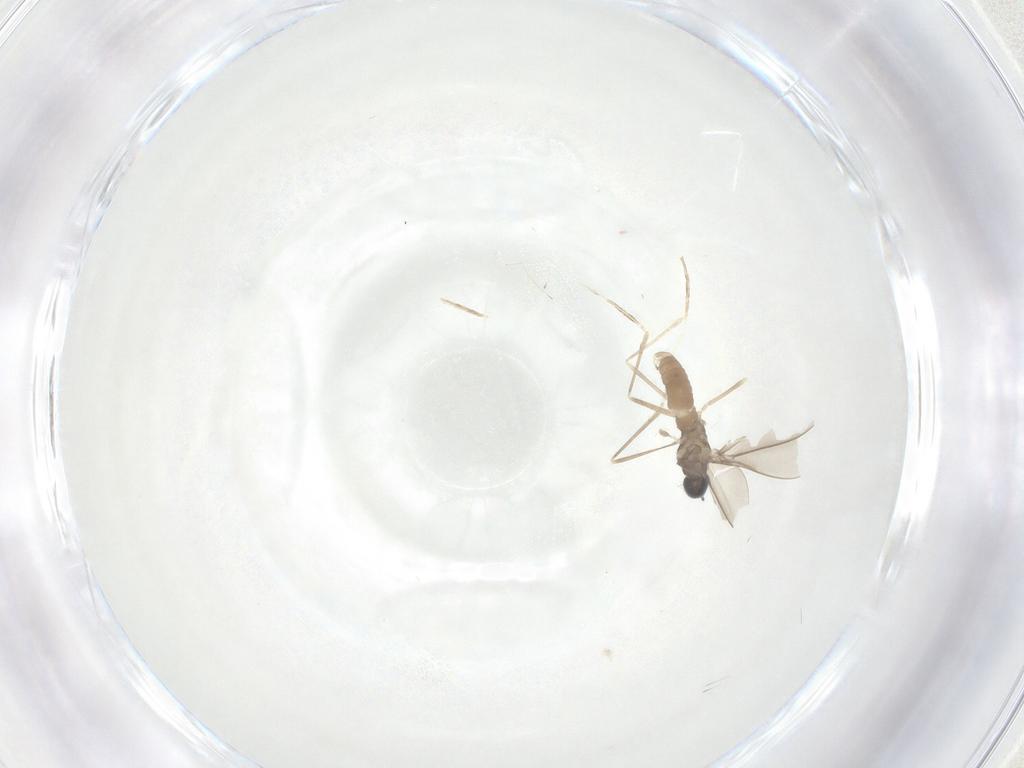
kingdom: Animalia
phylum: Arthropoda
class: Insecta
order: Diptera
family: Cecidomyiidae
